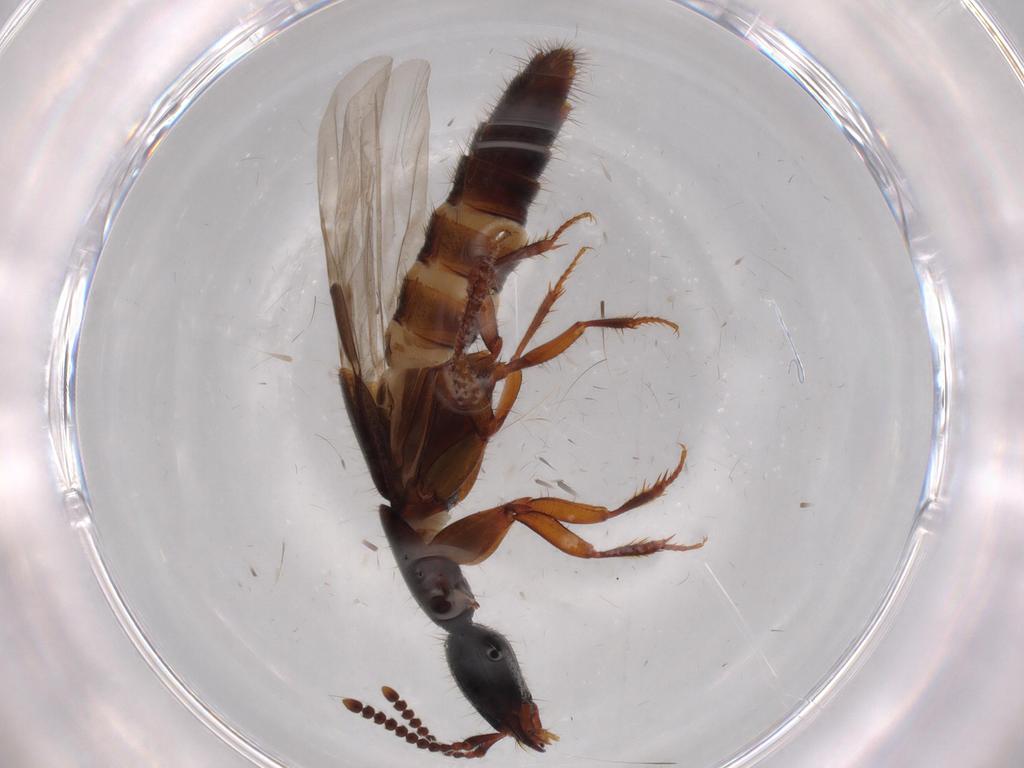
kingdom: Animalia
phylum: Arthropoda
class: Insecta
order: Coleoptera
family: Staphylinidae
